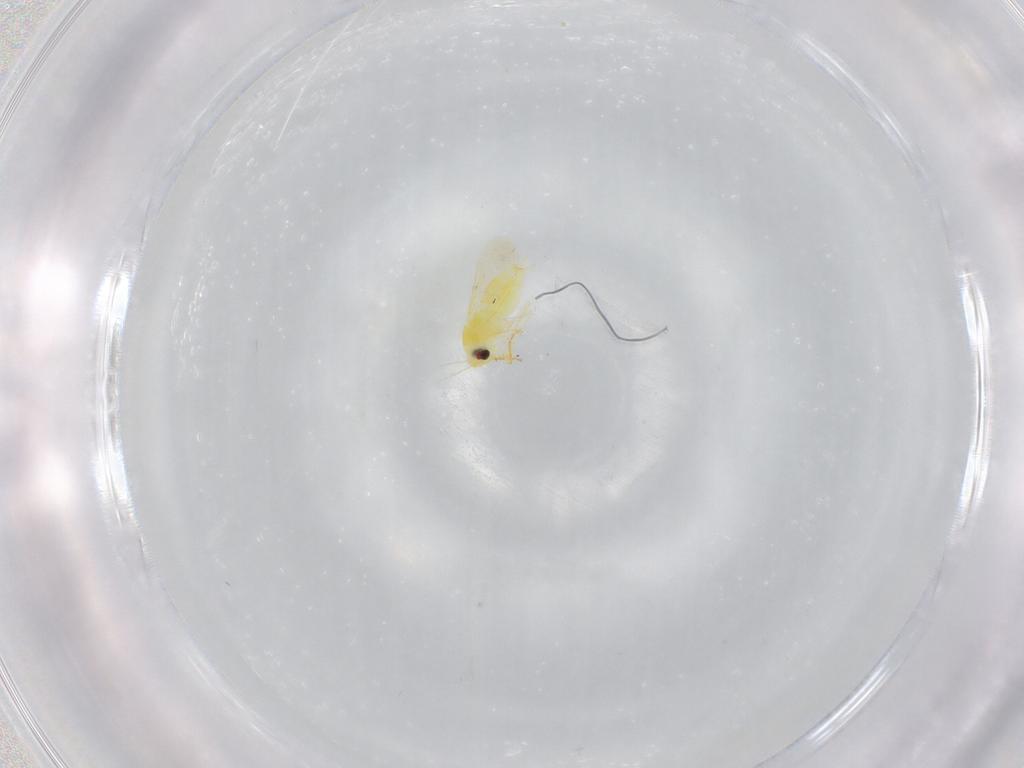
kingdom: Animalia
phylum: Arthropoda
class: Insecta
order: Hemiptera
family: Aleyrodidae
